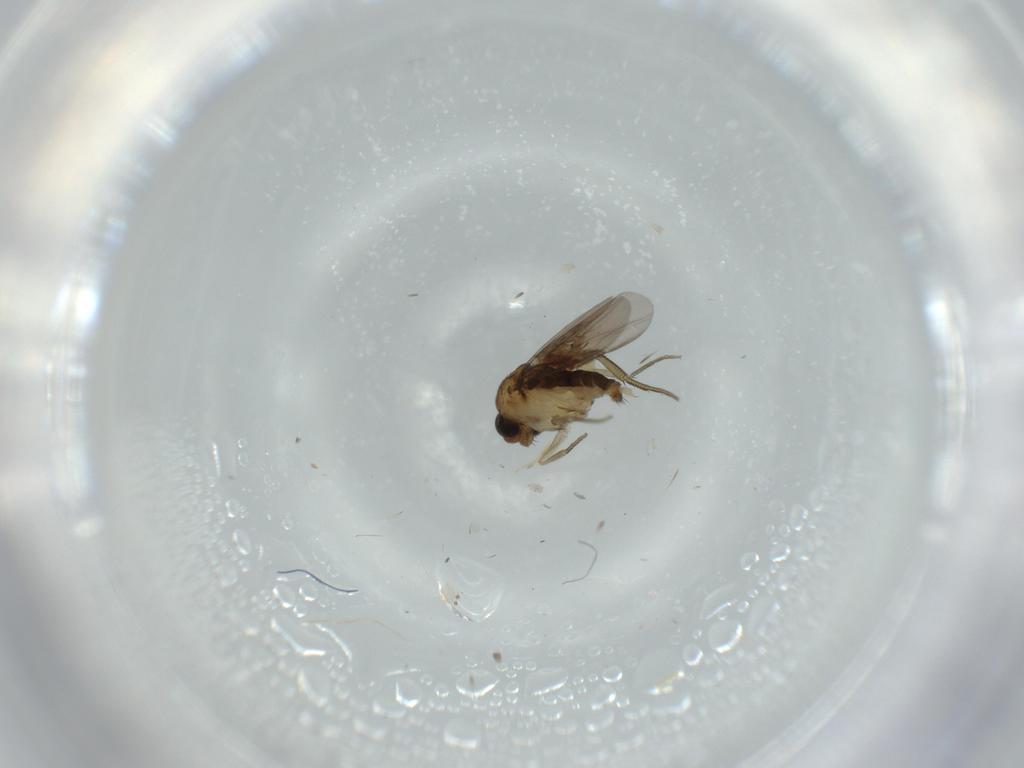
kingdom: Animalia
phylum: Arthropoda
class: Insecta
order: Diptera
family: Phoridae
